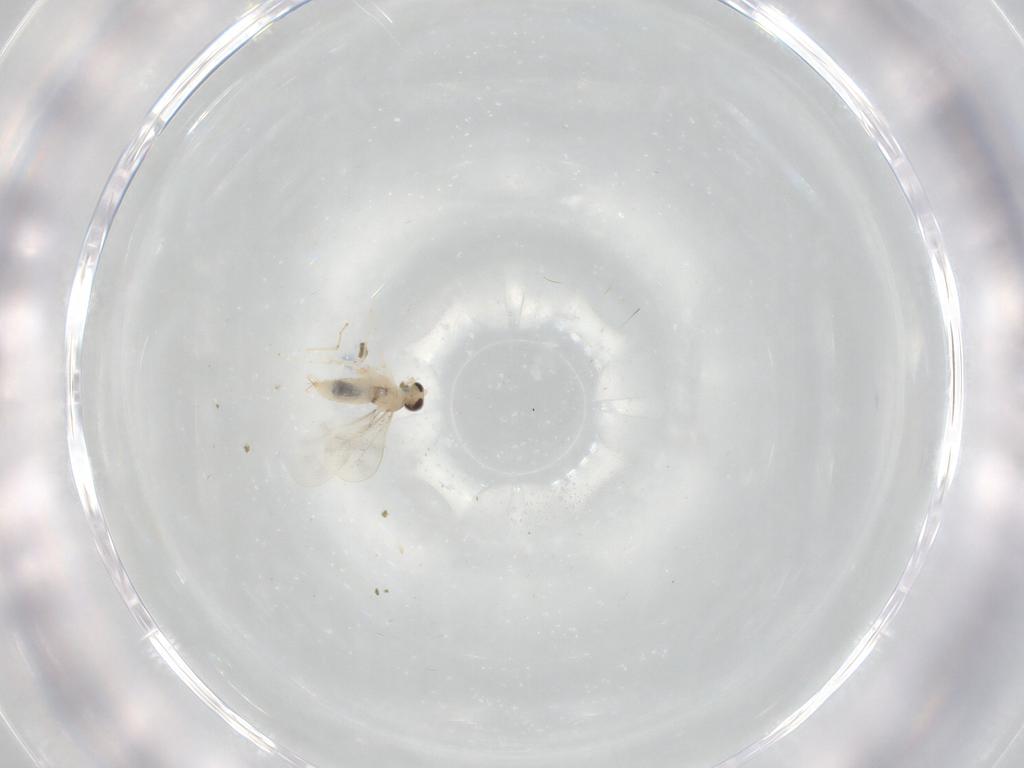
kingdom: Animalia
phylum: Arthropoda
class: Insecta
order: Diptera
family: Cecidomyiidae
